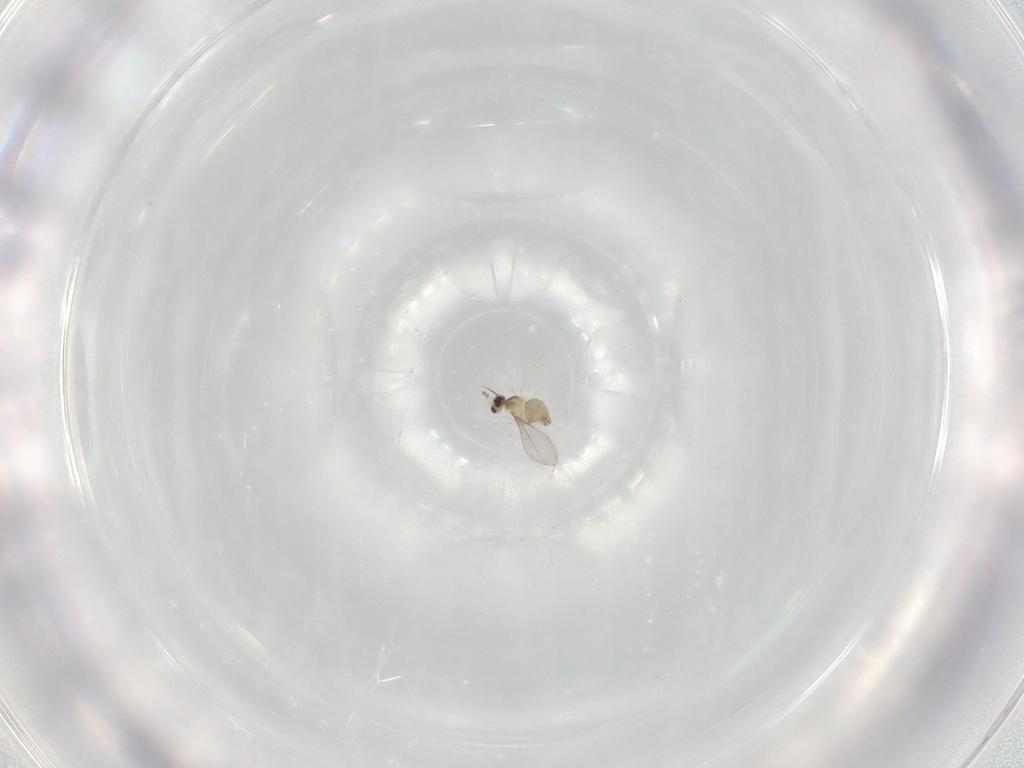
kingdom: Animalia
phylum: Arthropoda
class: Insecta
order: Diptera
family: Cecidomyiidae
